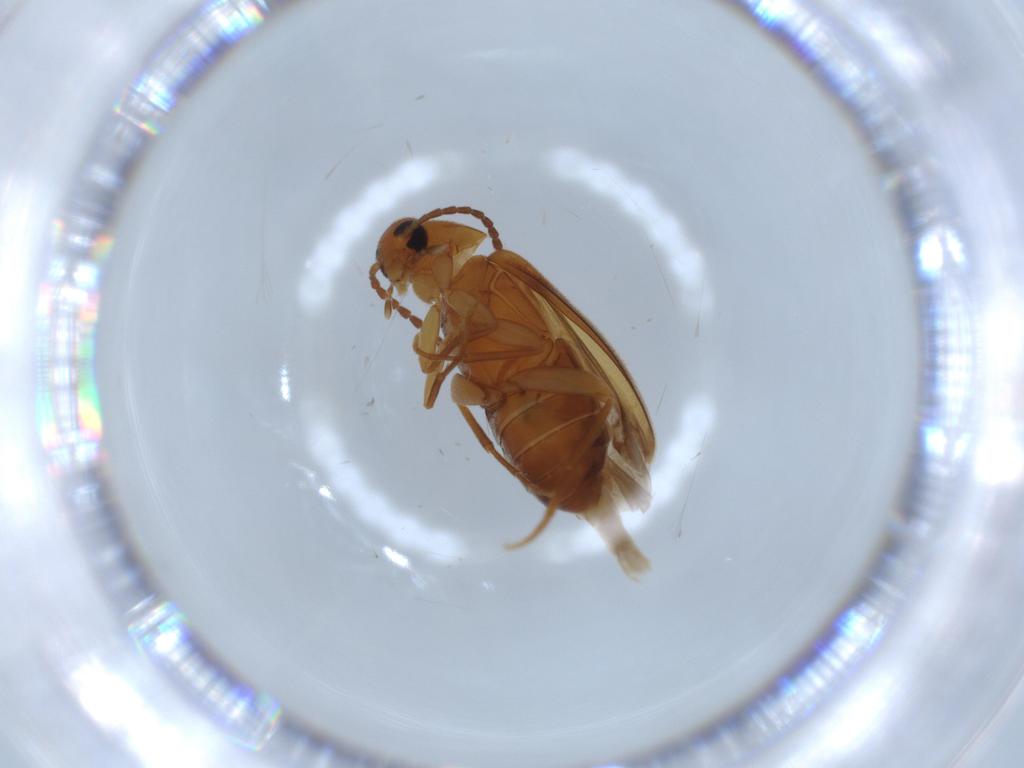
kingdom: Animalia
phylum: Arthropoda
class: Insecta
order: Coleoptera
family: Scraptiidae
